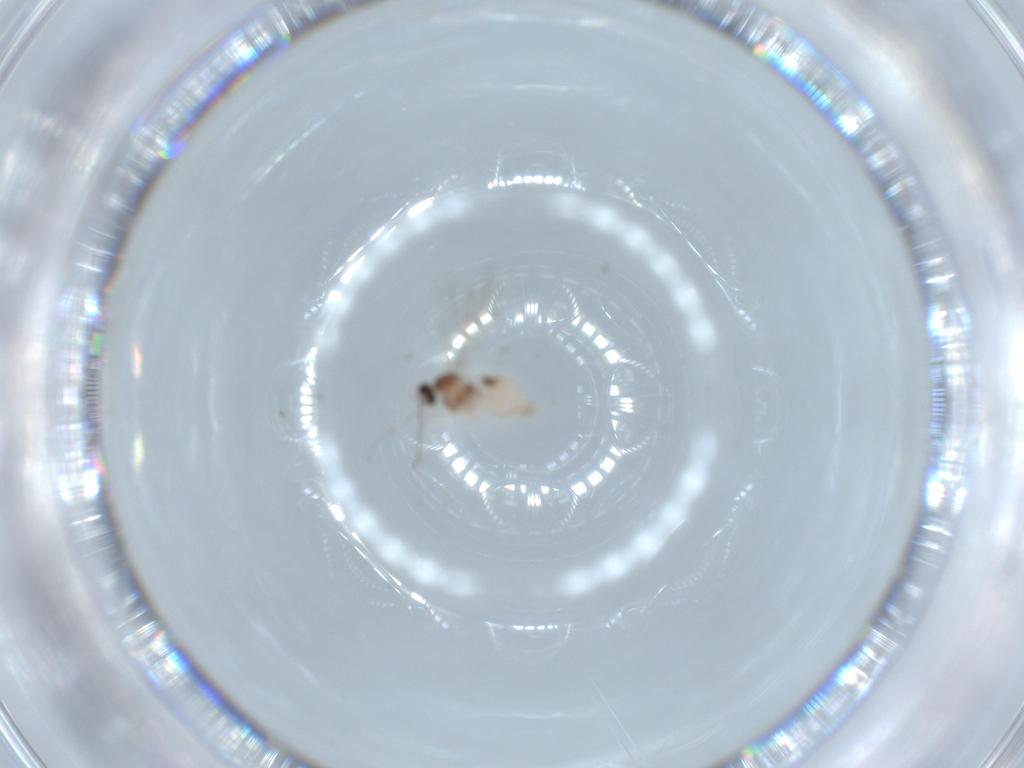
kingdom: Animalia
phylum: Arthropoda
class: Insecta
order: Diptera
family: Cecidomyiidae
